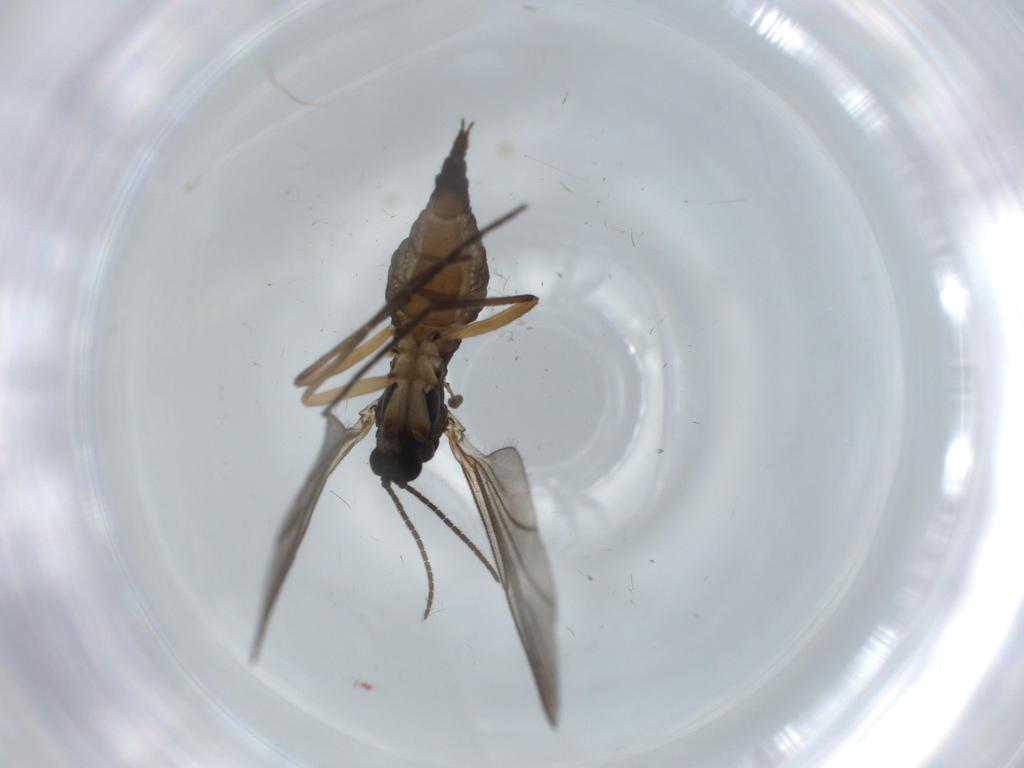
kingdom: Animalia
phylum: Arthropoda
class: Insecta
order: Diptera
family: Sciaridae
